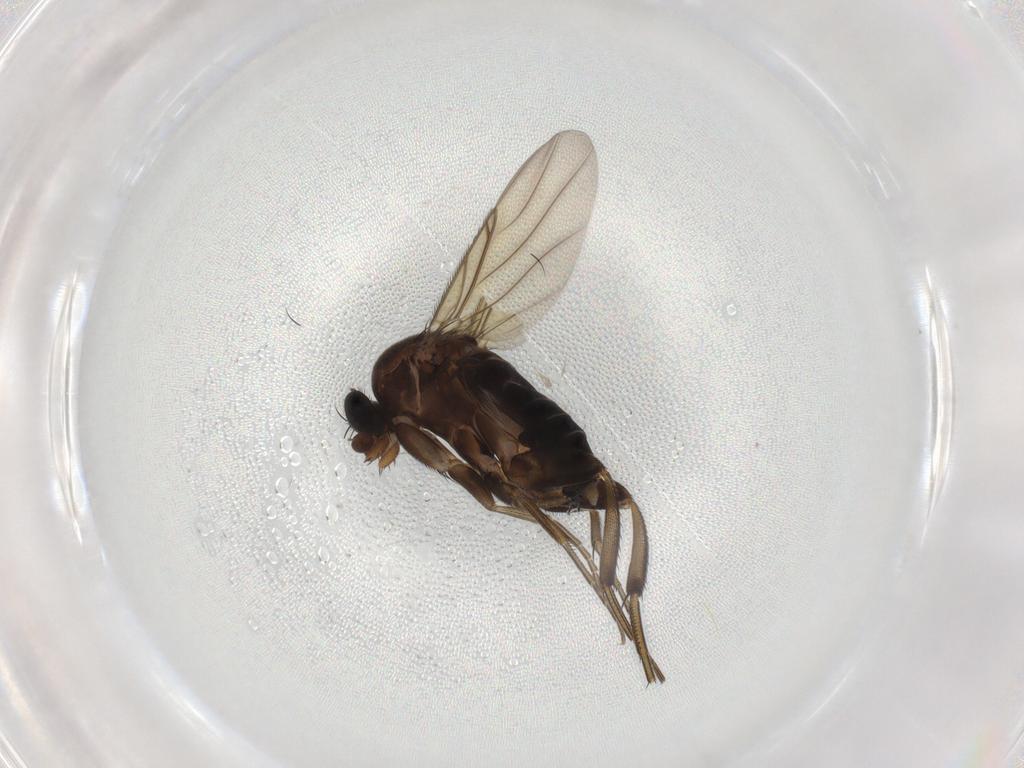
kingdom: Animalia
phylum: Arthropoda
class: Insecta
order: Diptera
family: Phoridae
